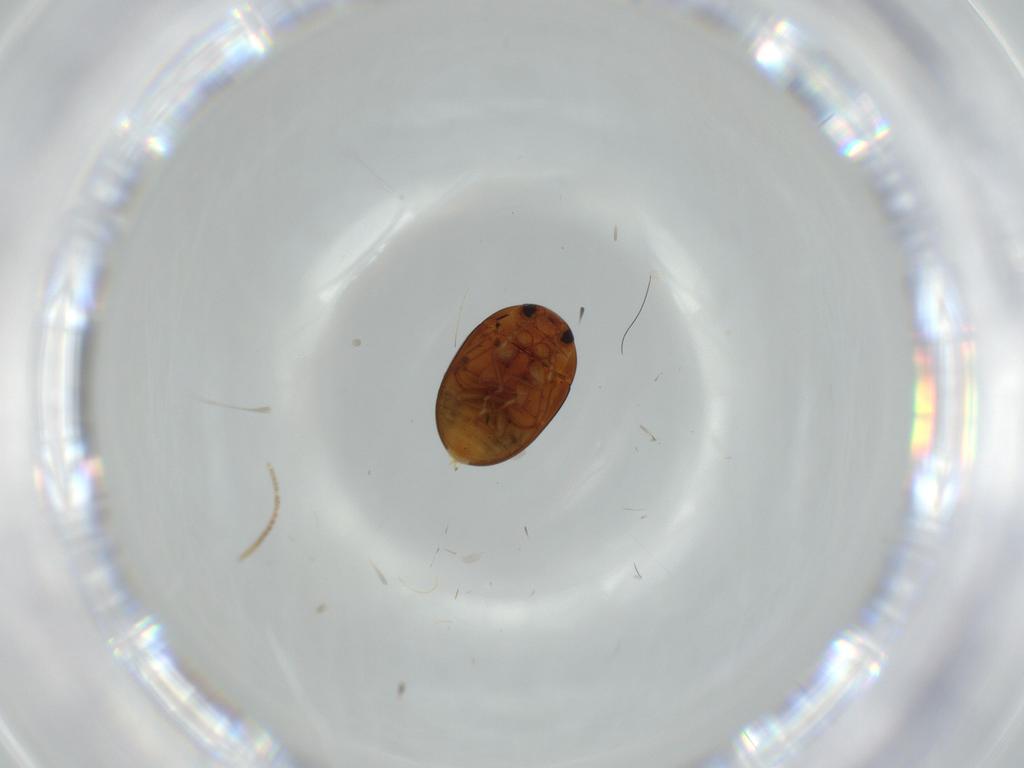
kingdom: Animalia
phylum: Arthropoda
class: Insecta
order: Coleoptera
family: Phalacridae
